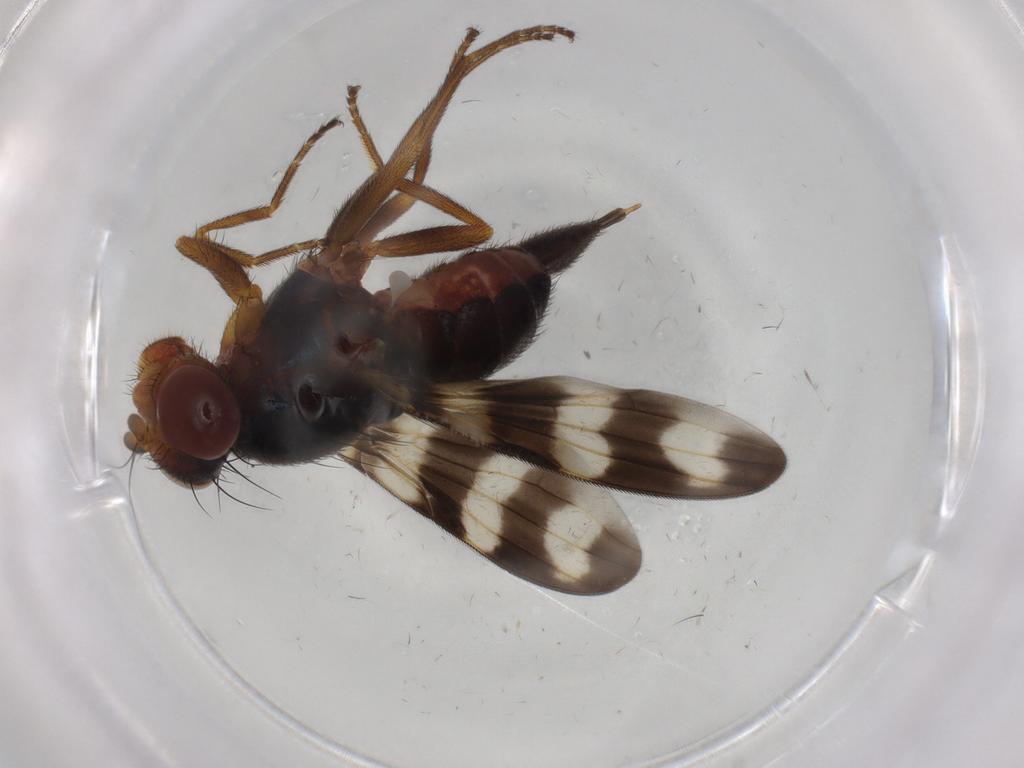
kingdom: Animalia
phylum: Arthropoda
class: Insecta
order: Diptera
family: Ulidiidae
